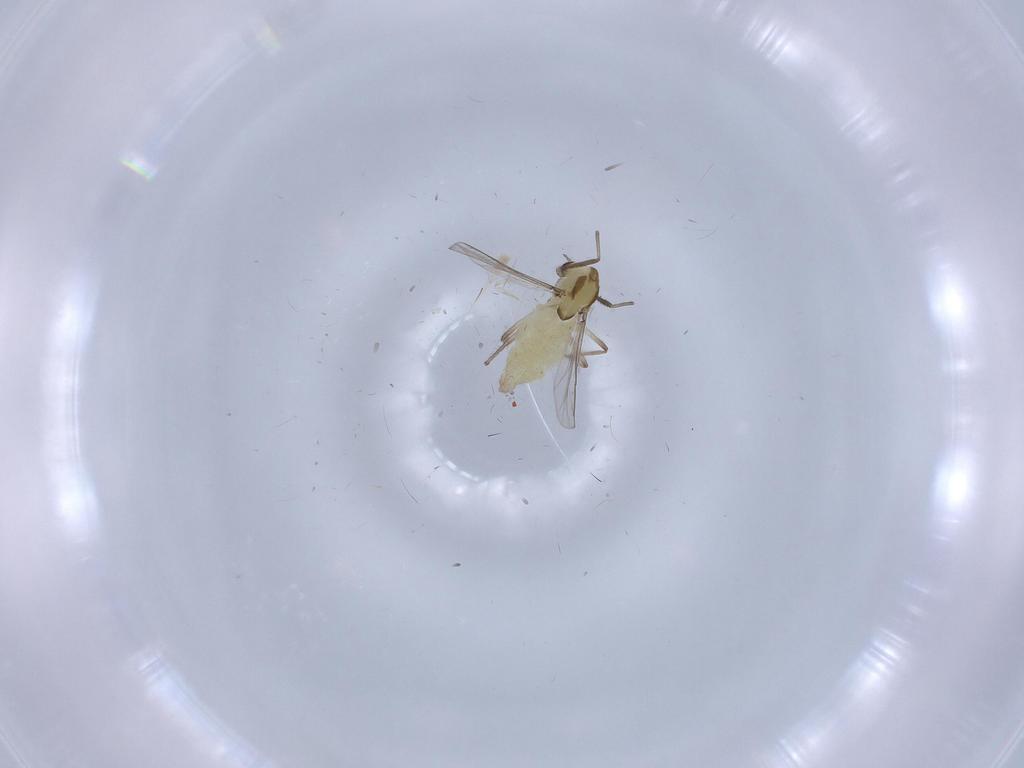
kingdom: Animalia
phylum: Arthropoda
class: Insecta
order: Diptera
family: Chironomidae
